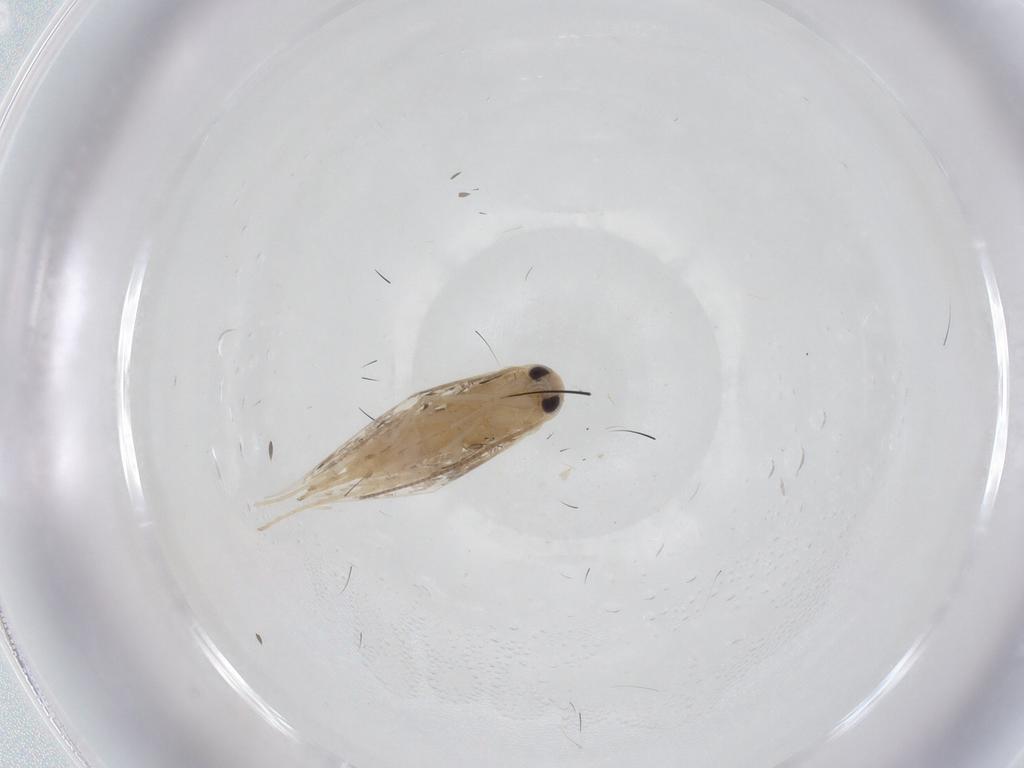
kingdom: Animalia
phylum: Arthropoda
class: Insecta
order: Lepidoptera
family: Gracillariidae
